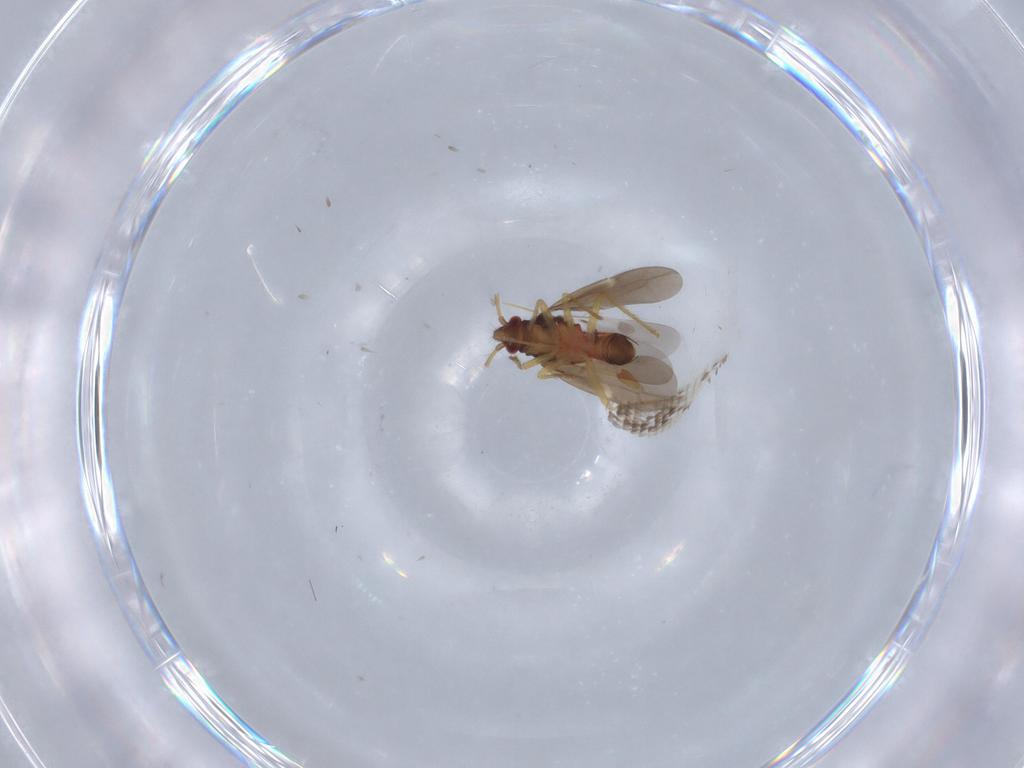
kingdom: Animalia
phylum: Arthropoda
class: Insecta
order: Hemiptera
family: Ceratocombidae
